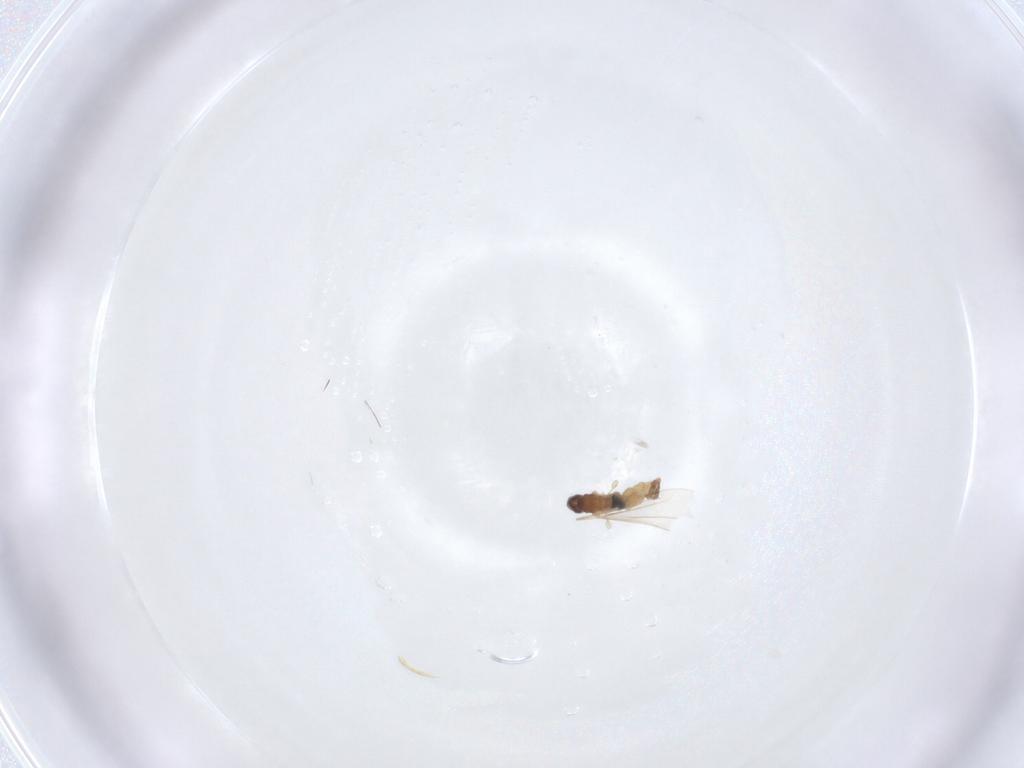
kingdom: Animalia
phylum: Arthropoda
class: Insecta
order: Diptera
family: Cecidomyiidae
